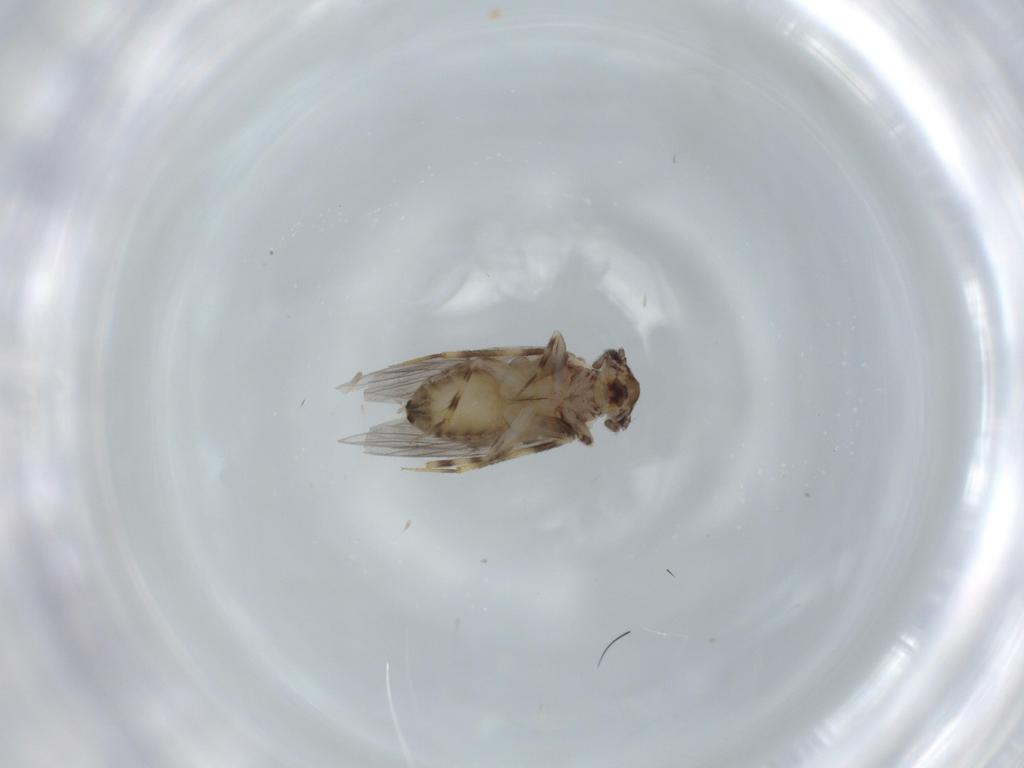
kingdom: Animalia
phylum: Arthropoda
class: Insecta
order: Psocodea
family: Lepidopsocidae
